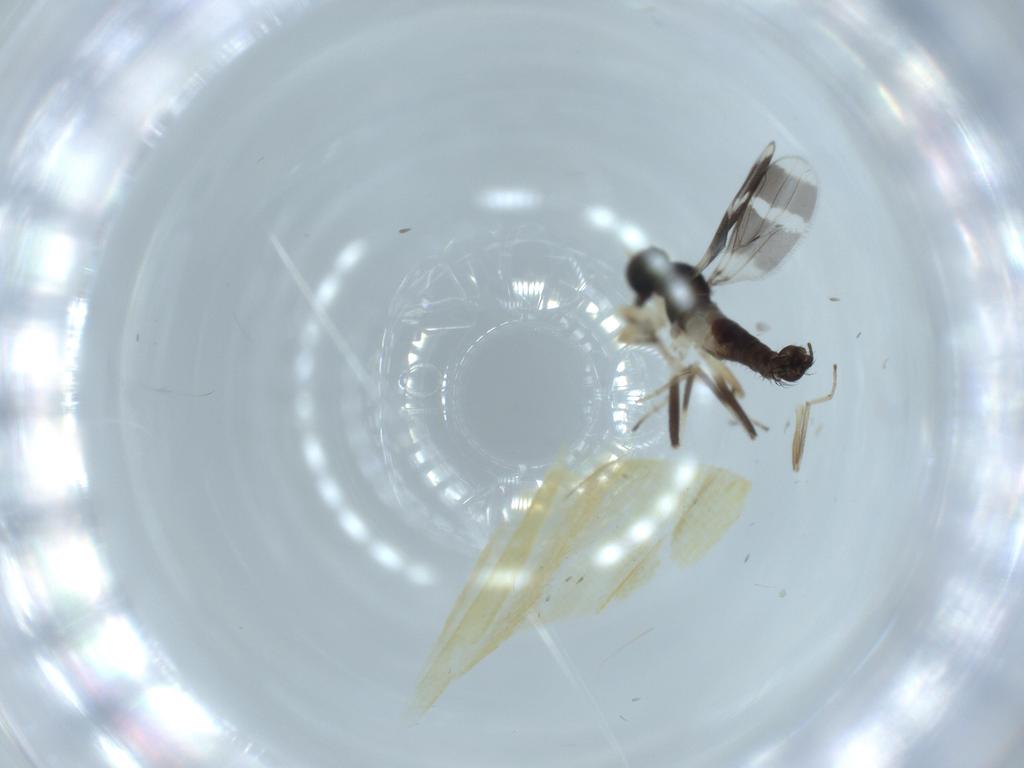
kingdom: Animalia
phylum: Arthropoda
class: Insecta
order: Diptera
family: Hybotidae
